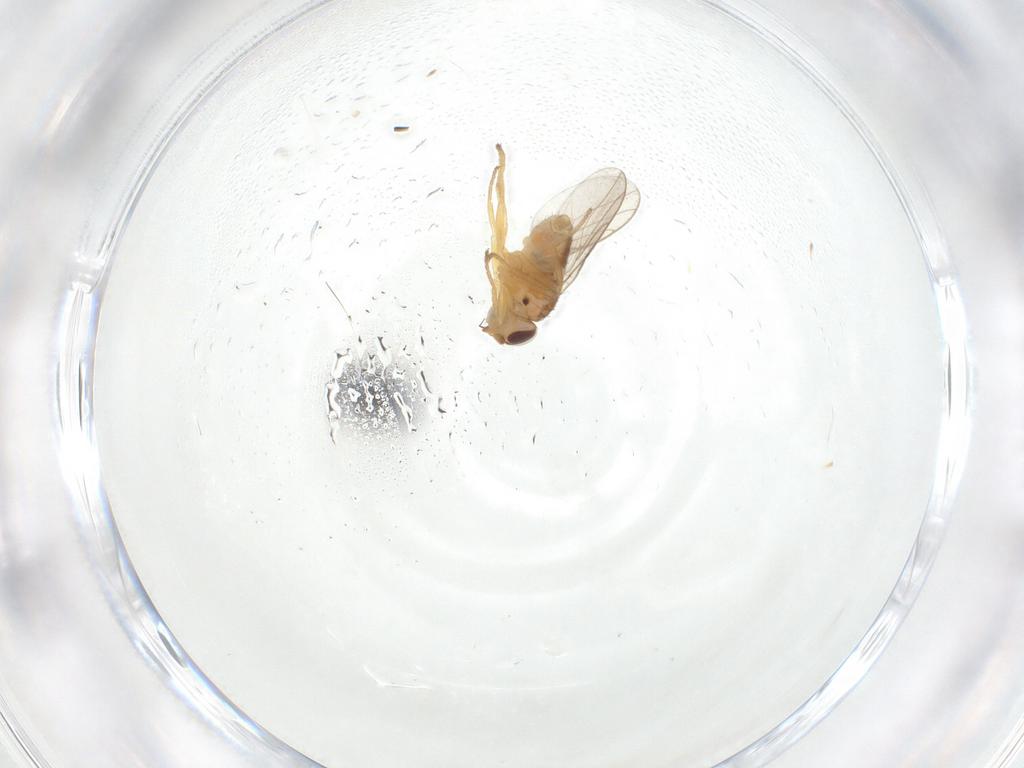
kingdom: Animalia
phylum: Arthropoda
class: Insecta
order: Diptera
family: Chloropidae
